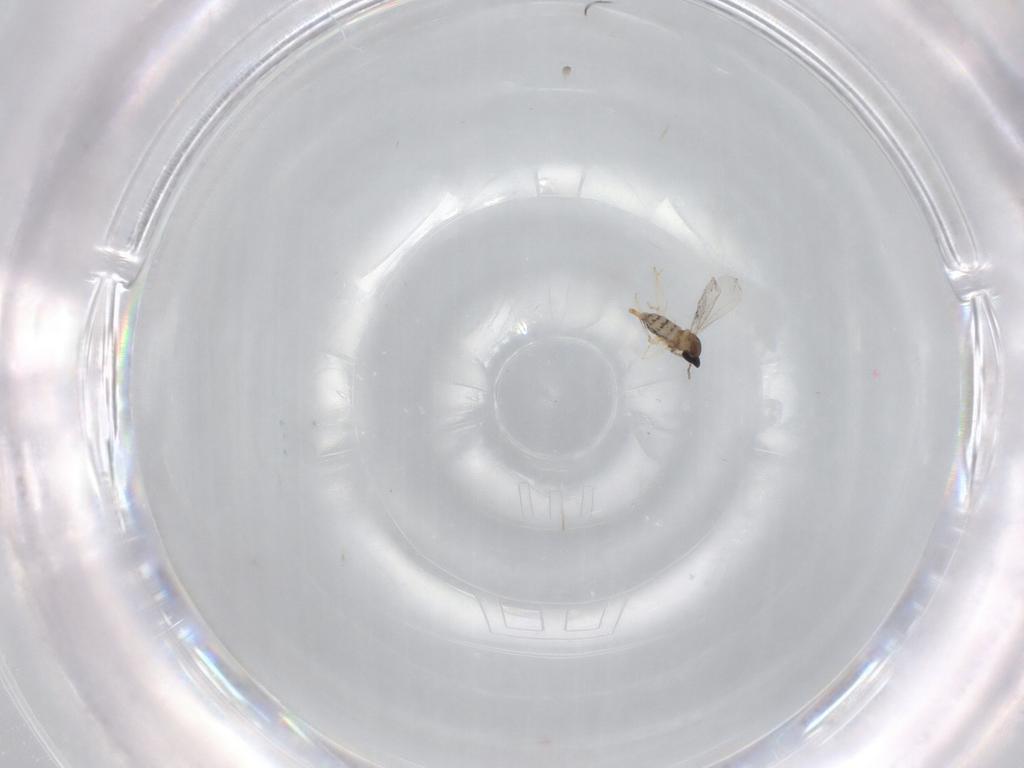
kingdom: Animalia
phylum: Arthropoda
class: Insecta
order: Diptera
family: Cecidomyiidae
